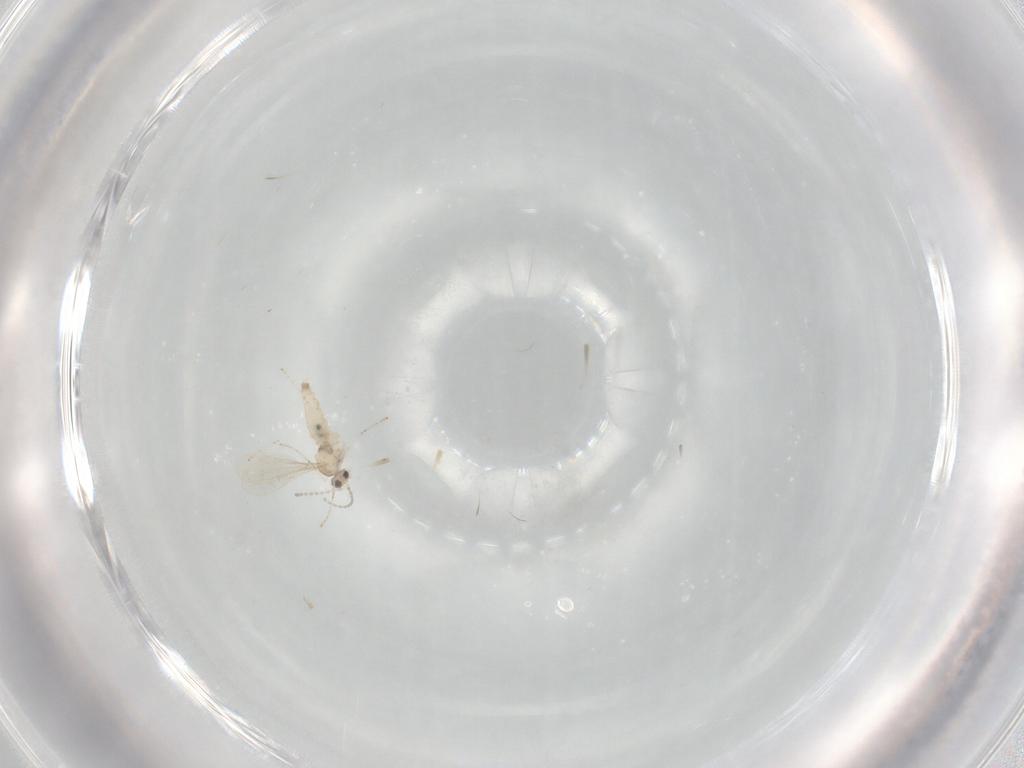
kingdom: Animalia
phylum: Arthropoda
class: Insecta
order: Diptera
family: Cecidomyiidae
